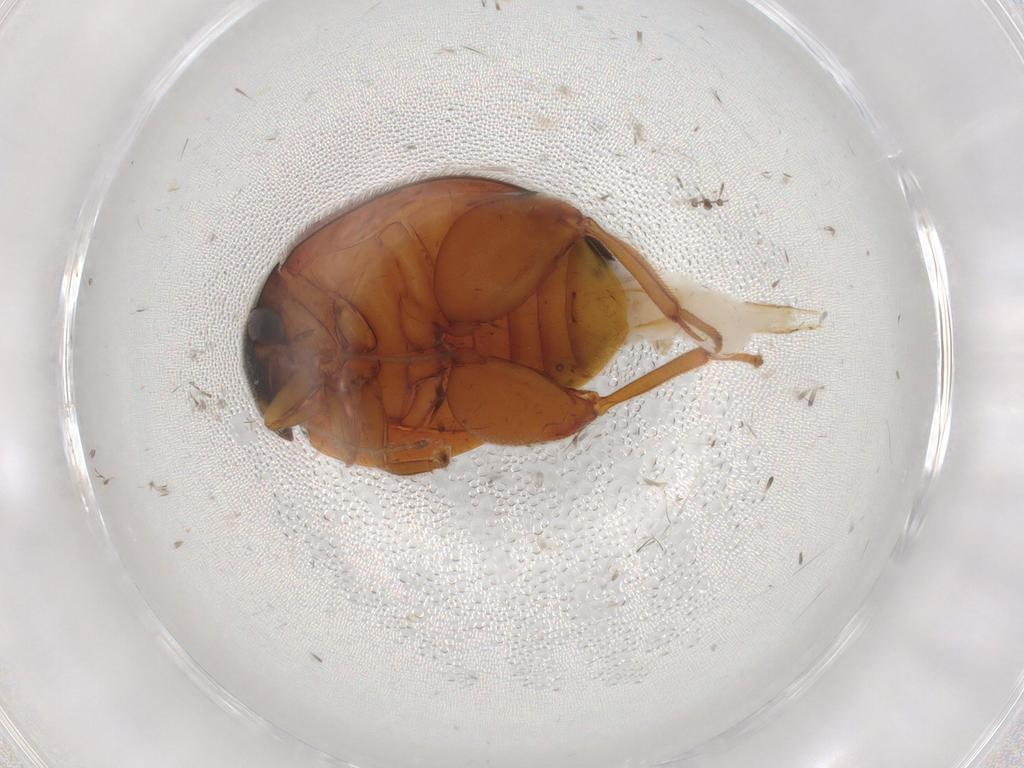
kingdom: Animalia
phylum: Arthropoda
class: Insecta
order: Coleoptera
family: Scirtidae
